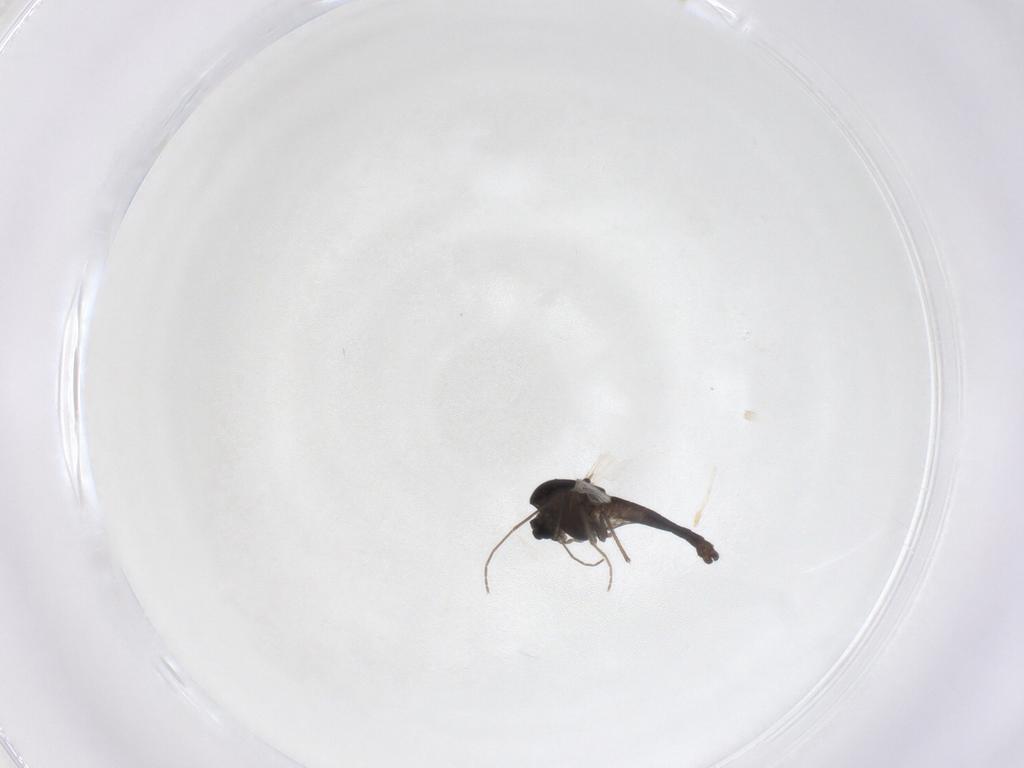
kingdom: Animalia
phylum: Arthropoda
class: Insecta
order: Diptera
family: Chironomidae
